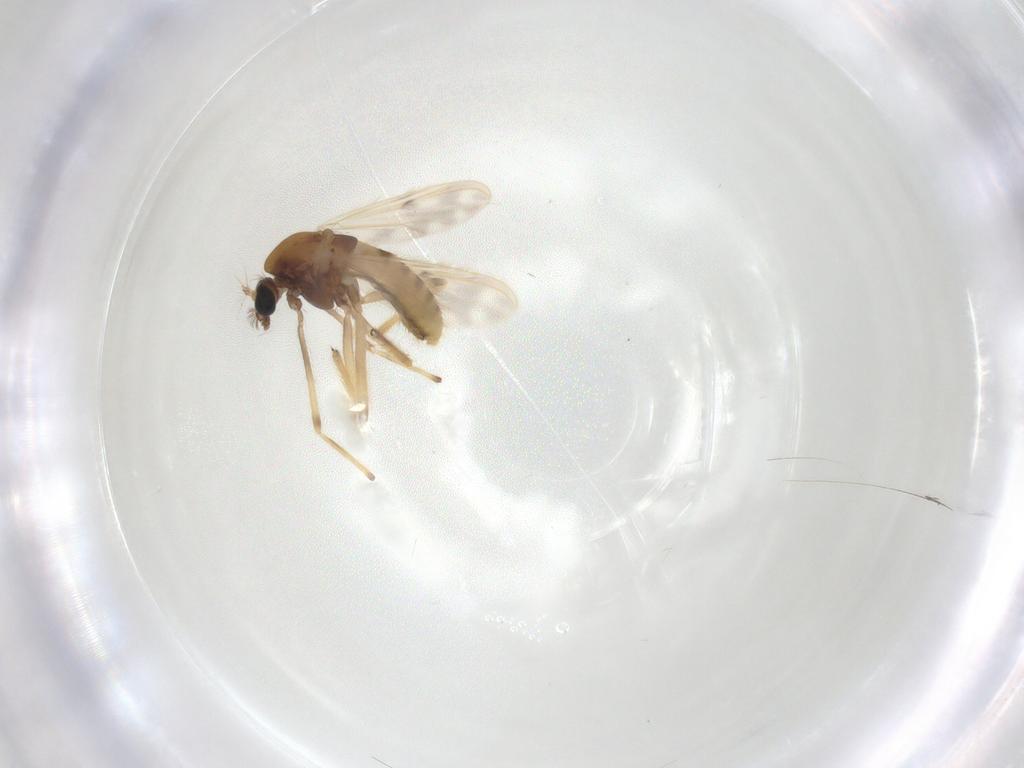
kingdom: Animalia
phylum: Arthropoda
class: Insecta
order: Diptera
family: Chironomidae
